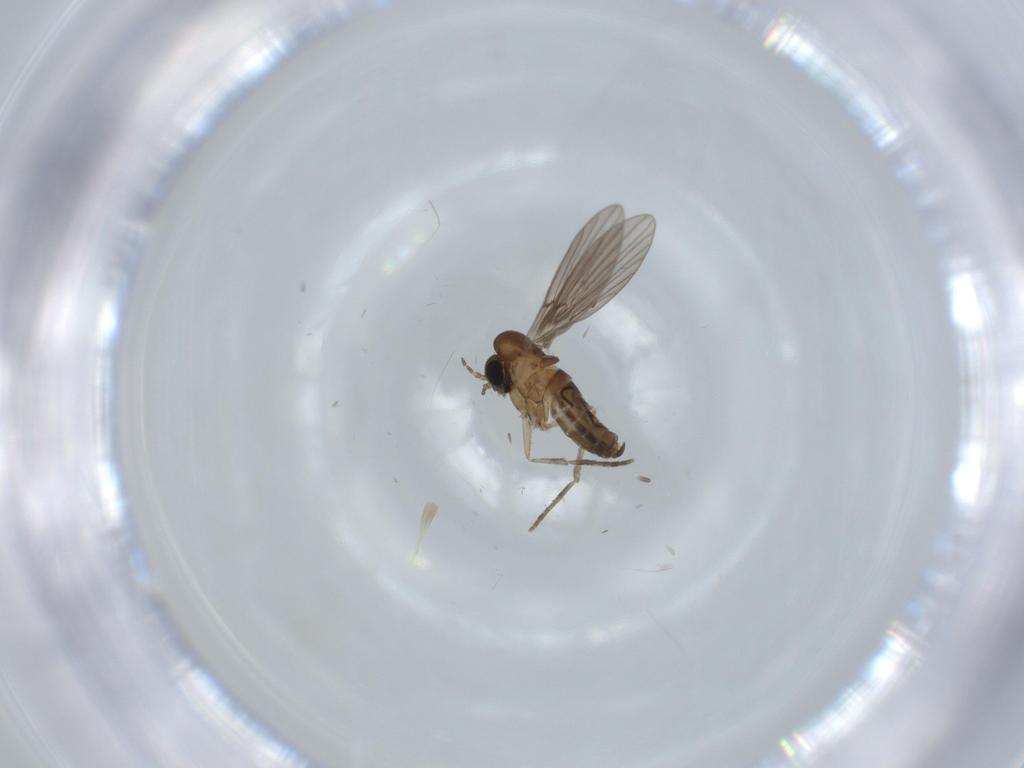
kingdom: Animalia
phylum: Arthropoda
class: Insecta
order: Diptera
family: Psychodidae
